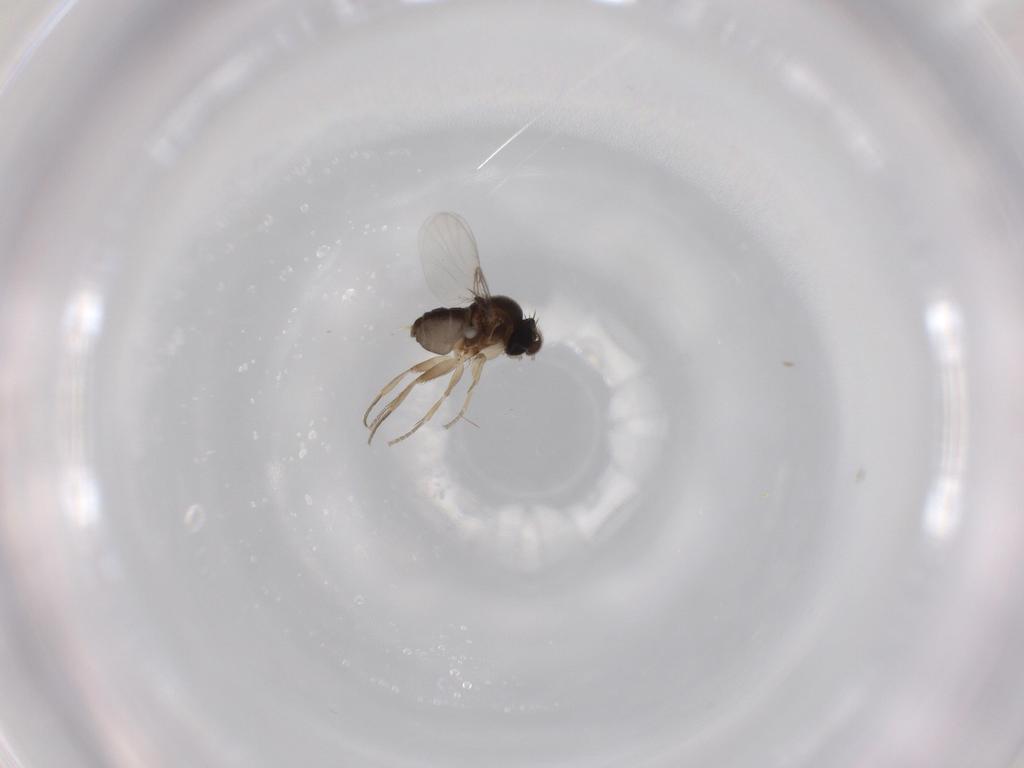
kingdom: Animalia
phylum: Arthropoda
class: Insecta
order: Diptera
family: Phoridae
